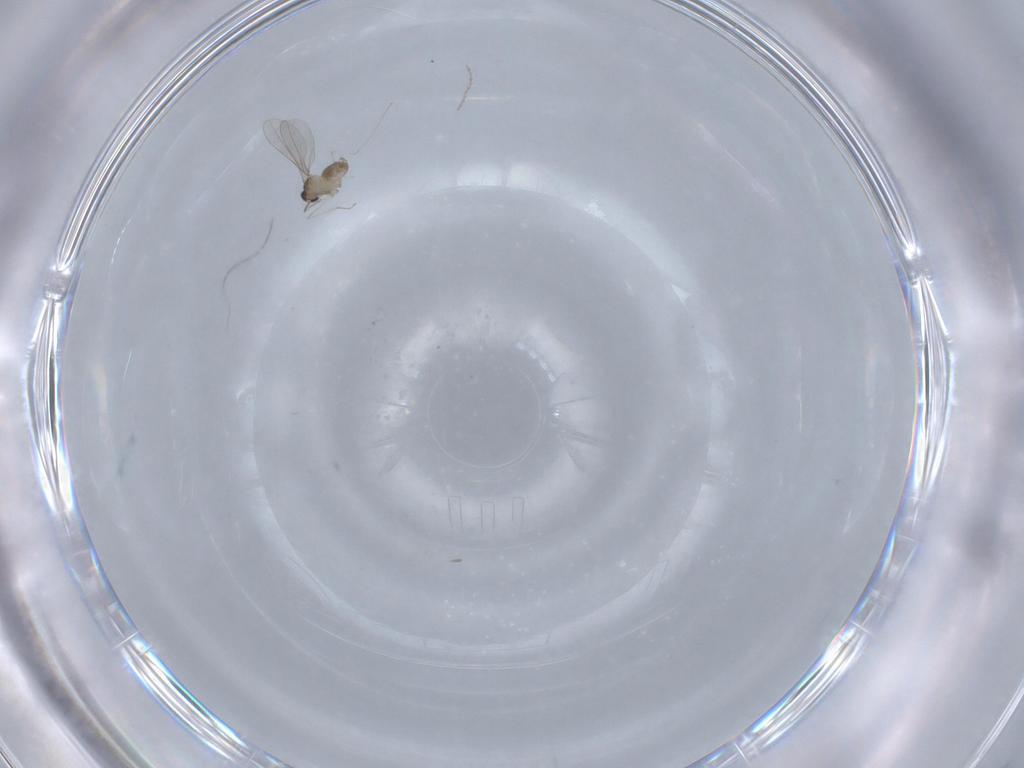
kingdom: Animalia
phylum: Arthropoda
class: Insecta
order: Diptera
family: Cecidomyiidae
